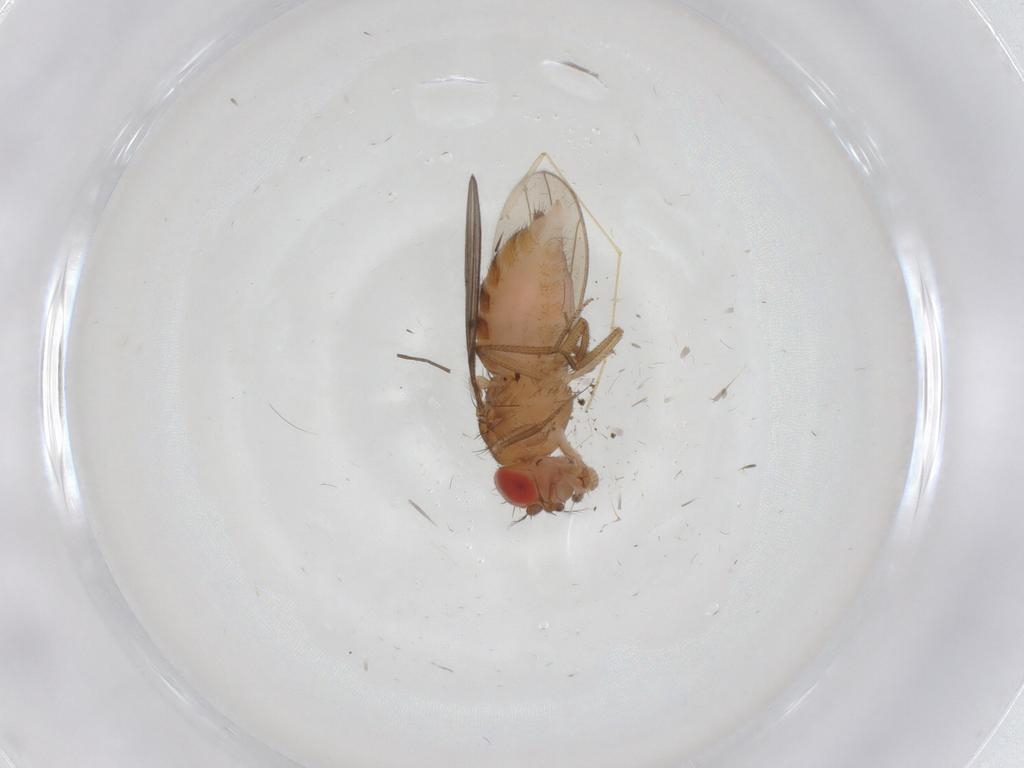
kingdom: Animalia
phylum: Arthropoda
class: Insecta
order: Diptera
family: Drosophilidae
